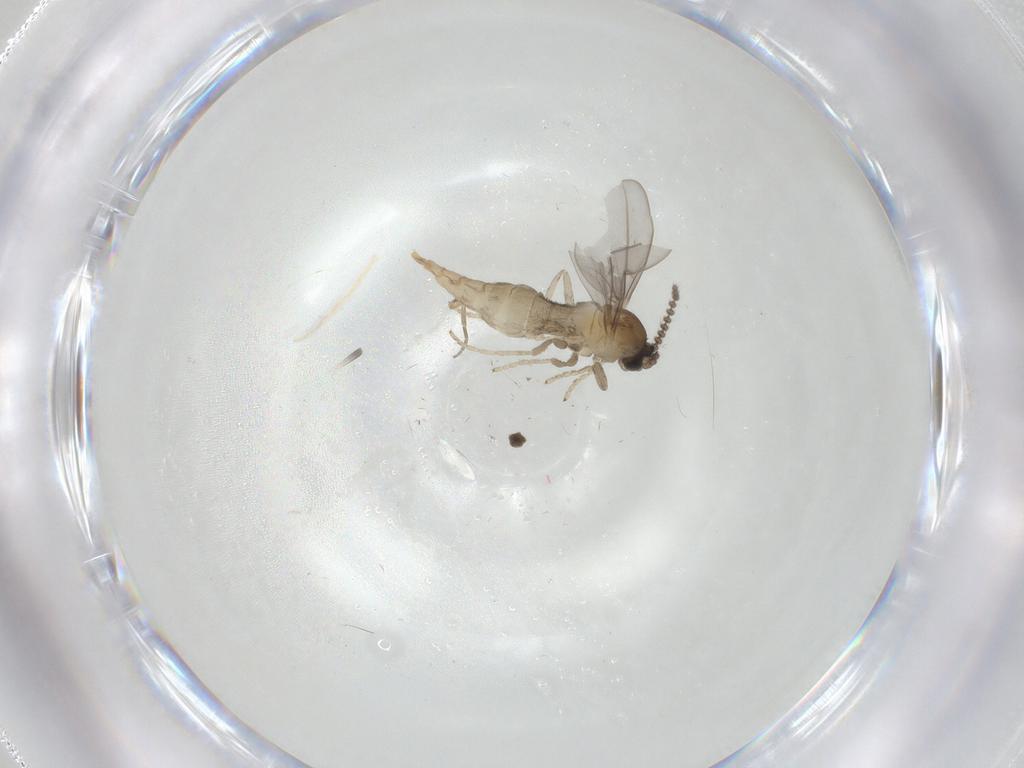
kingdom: Animalia
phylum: Arthropoda
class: Insecta
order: Diptera
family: Cecidomyiidae
